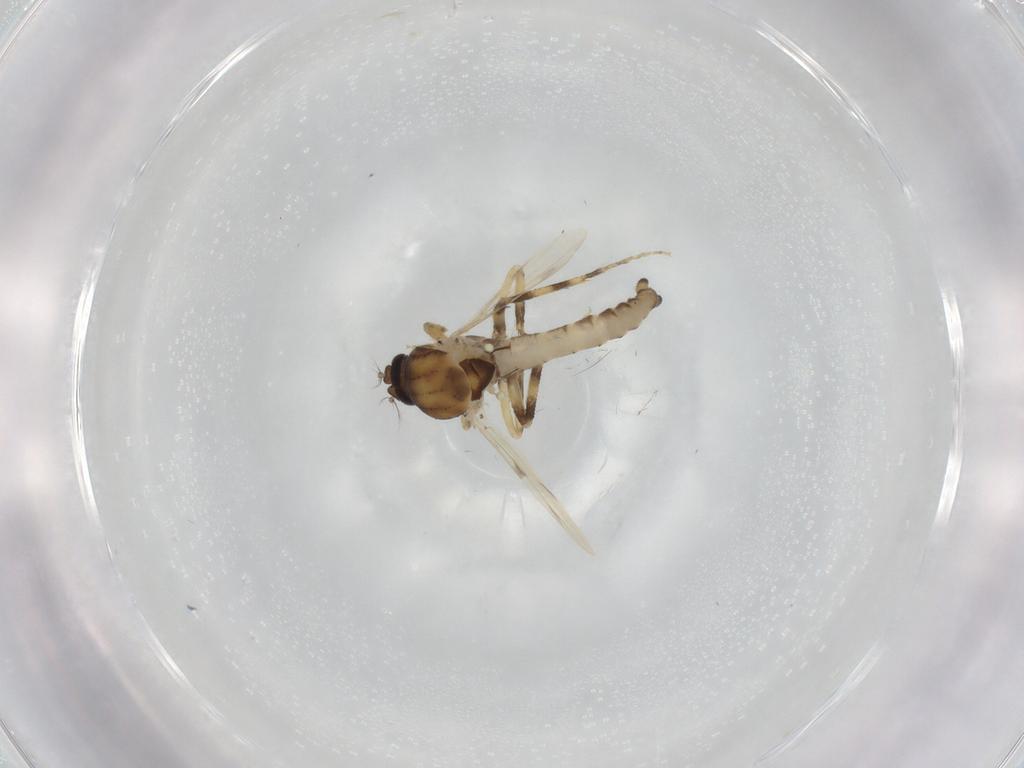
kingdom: Animalia
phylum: Arthropoda
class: Insecta
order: Diptera
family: Ceratopogonidae
